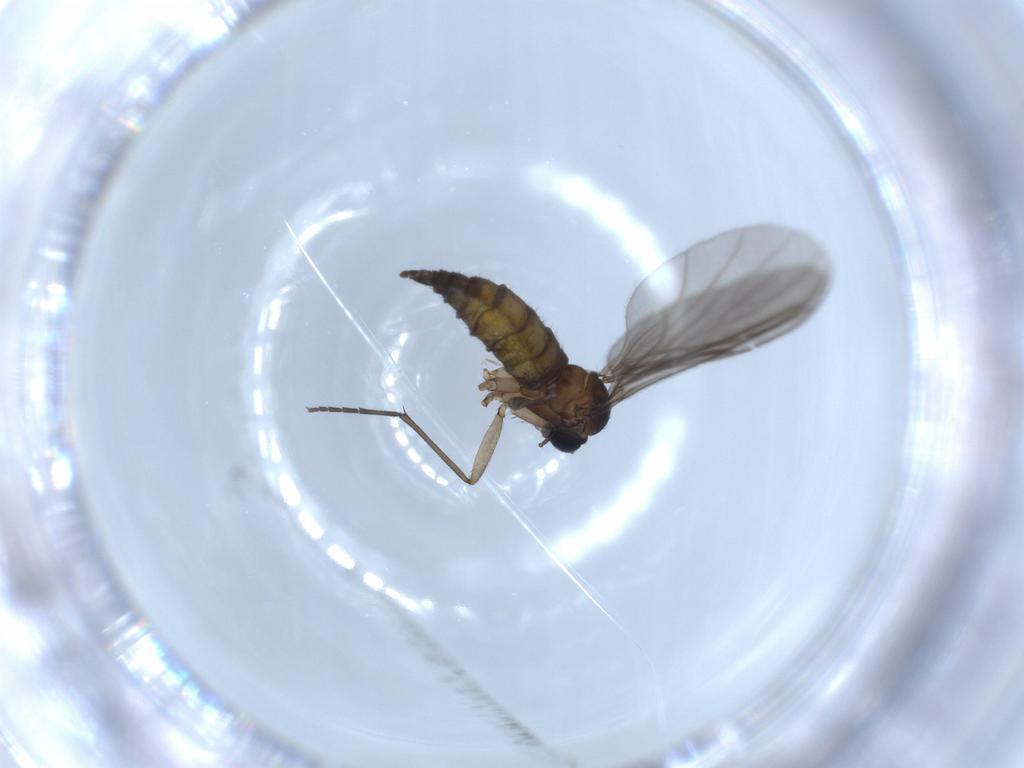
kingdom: Animalia
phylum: Arthropoda
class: Insecta
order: Diptera
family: Sciaridae
